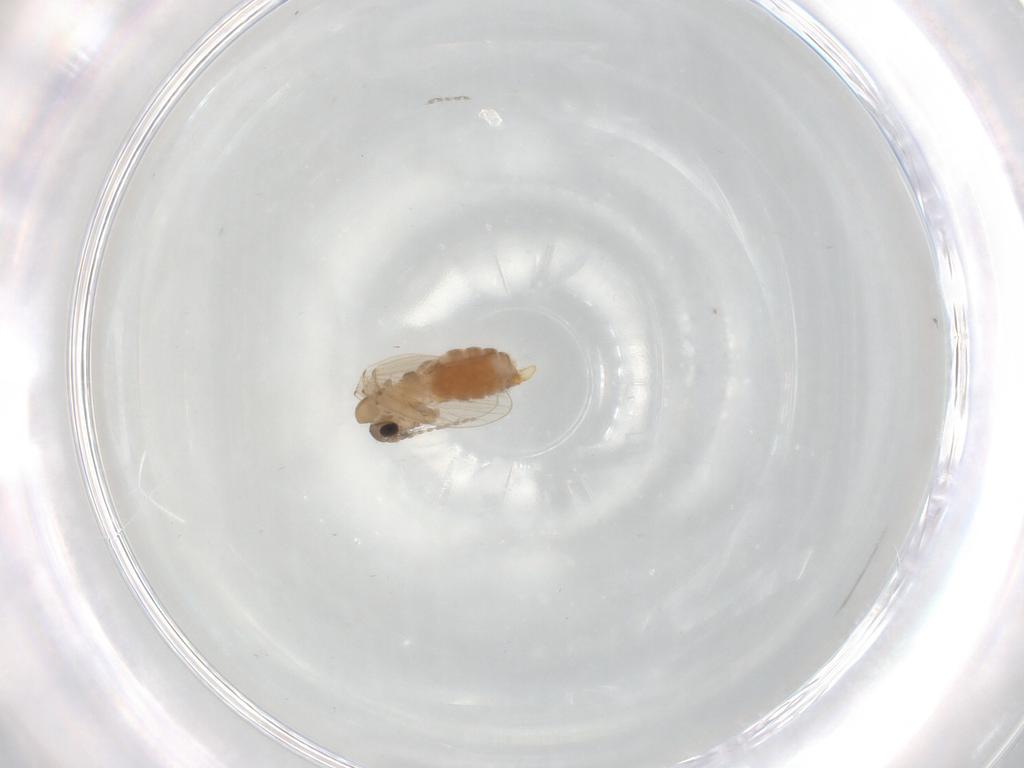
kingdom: Animalia
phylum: Arthropoda
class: Insecta
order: Diptera
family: Psychodidae
